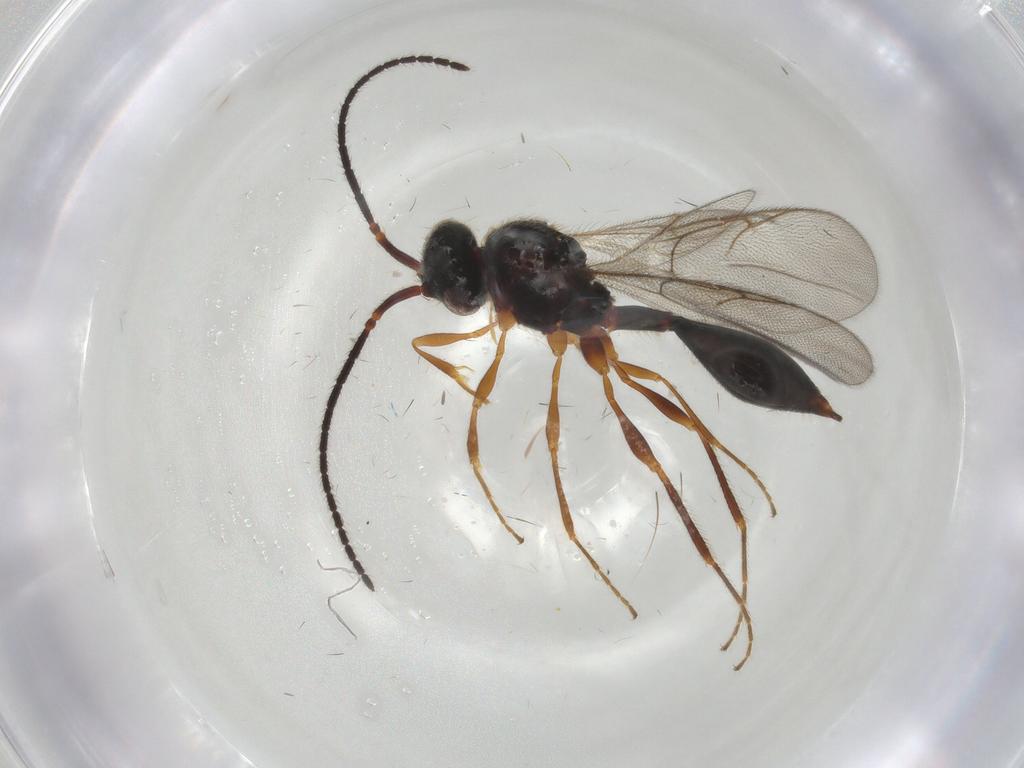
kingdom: Animalia
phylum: Arthropoda
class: Insecta
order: Hymenoptera
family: Diapriidae
